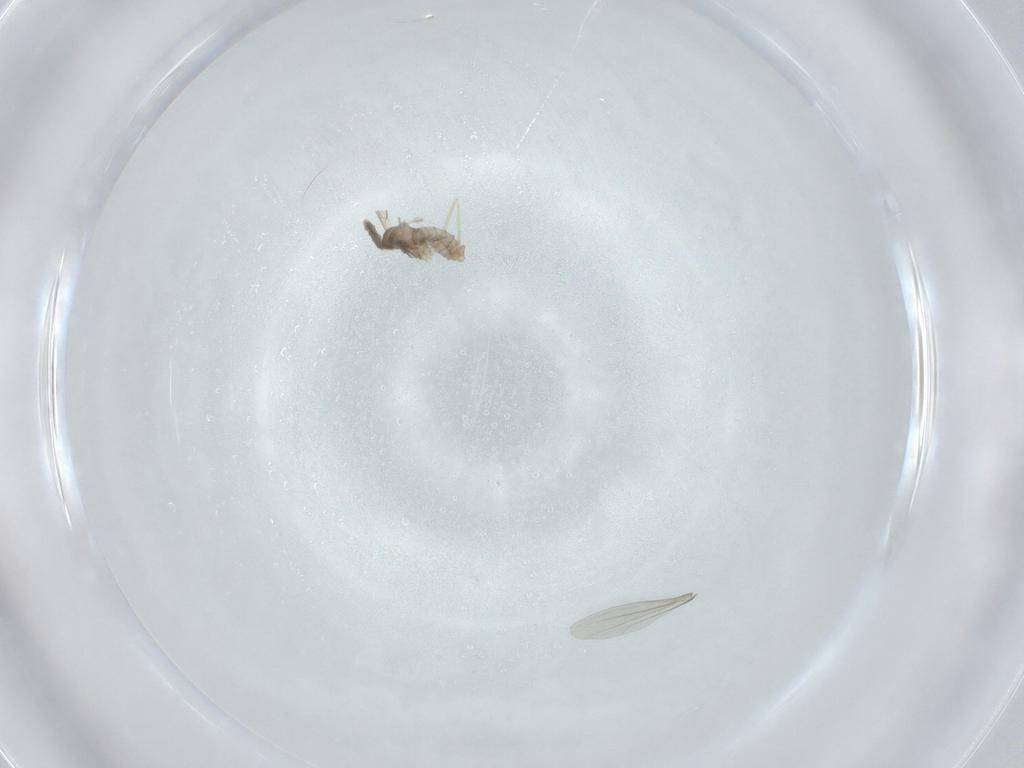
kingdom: Animalia
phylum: Arthropoda
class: Insecta
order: Diptera
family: Cecidomyiidae
